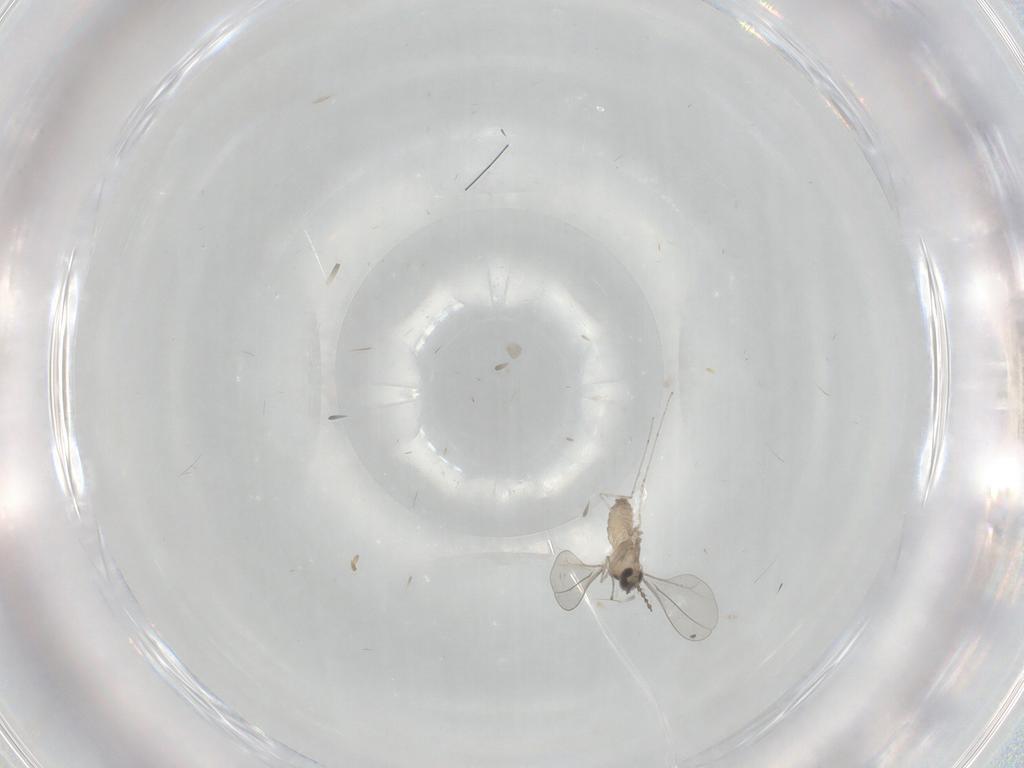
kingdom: Animalia
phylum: Arthropoda
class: Insecta
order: Diptera
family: Cecidomyiidae
